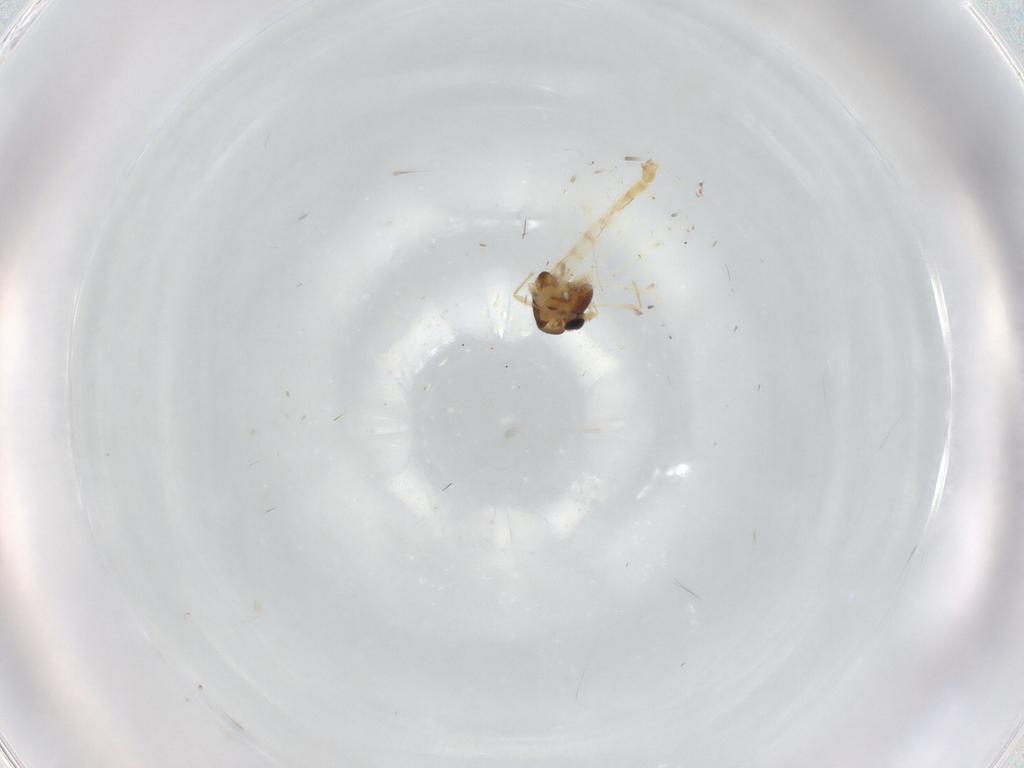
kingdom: Animalia
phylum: Arthropoda
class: Insecta
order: Diptera
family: Chironomidae
